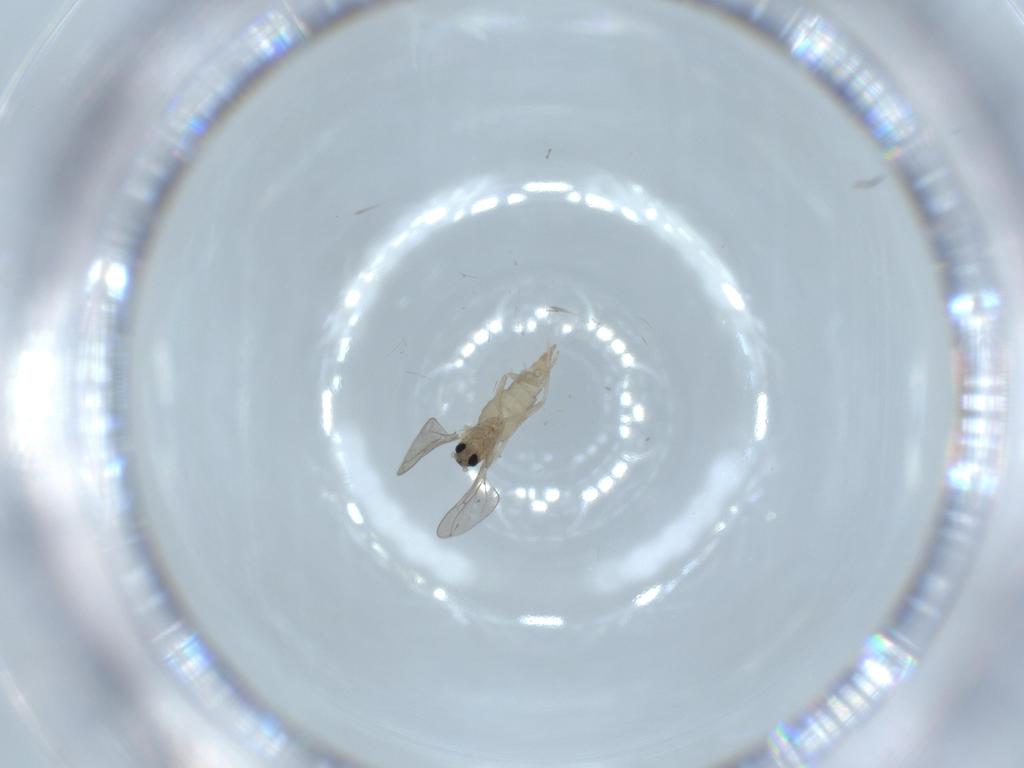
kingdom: Animalia
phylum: Arthropoda
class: Insecta
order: Diptera
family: Cecidomyiidae
